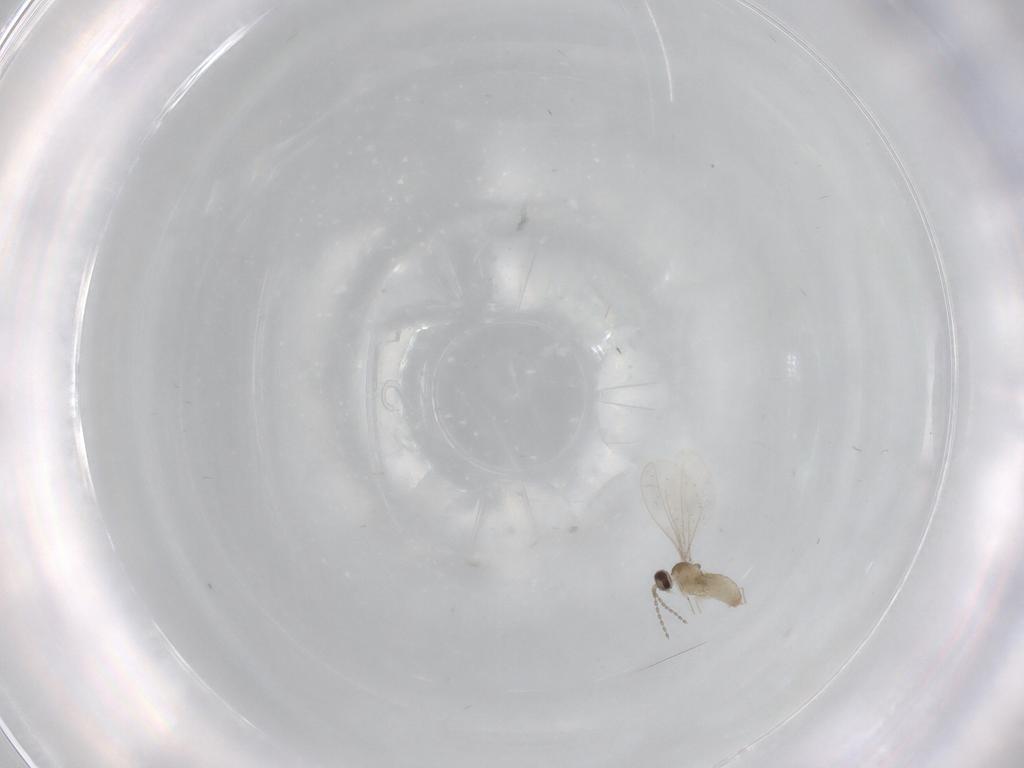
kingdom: Animalia
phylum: Arthropoda
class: Insecta
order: Diptera
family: Cecidomyiidae
